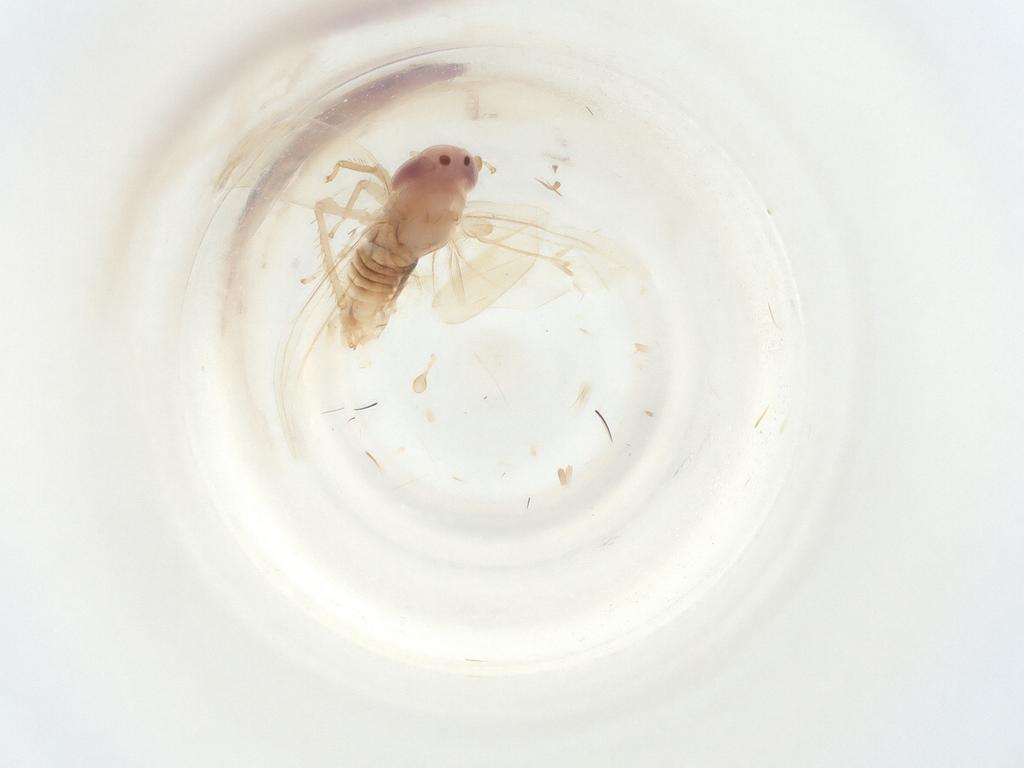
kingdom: Animalia
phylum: Arthropoda
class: Insecta
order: Hemiptera
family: Cicadellidae
